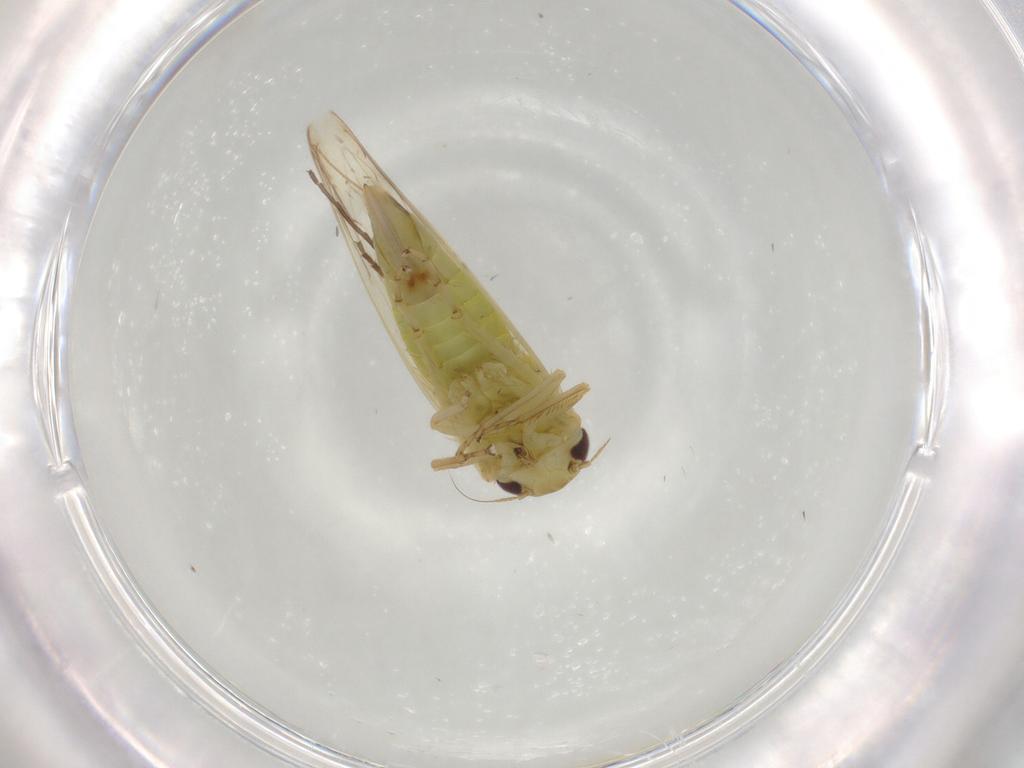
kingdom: Animalia
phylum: Arthropoda
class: Insecta
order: Hemiptera
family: Cicadellidae
